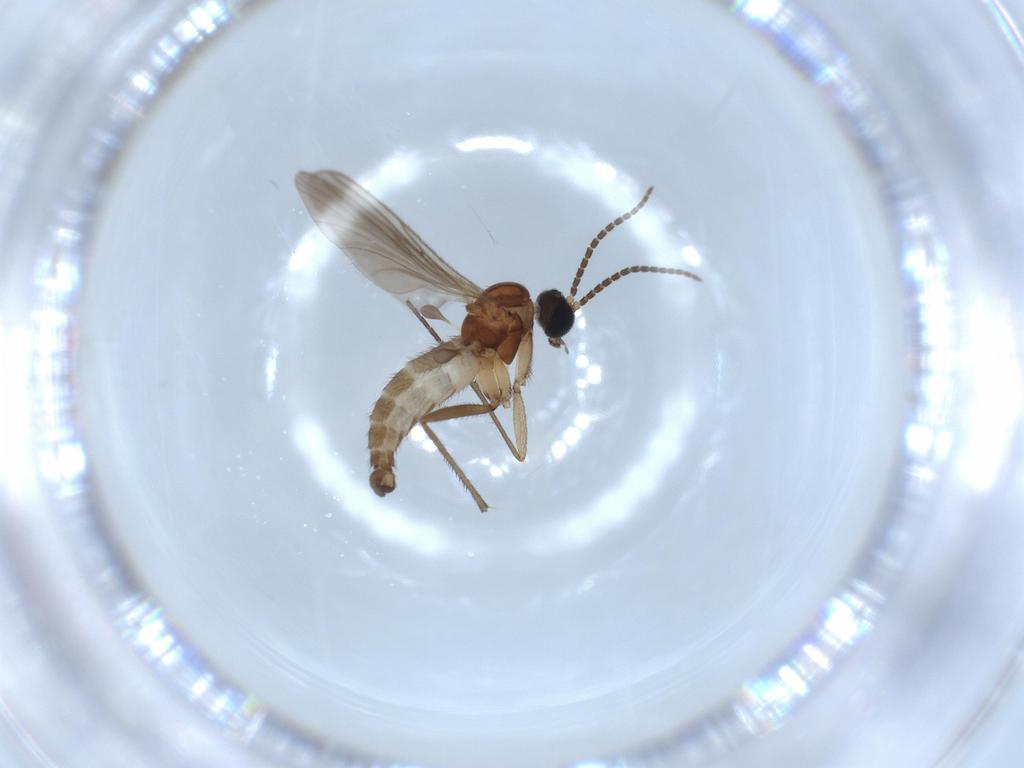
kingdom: Animalia
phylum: Arthropoda
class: Insecta
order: Diptera
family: Sciaridae
